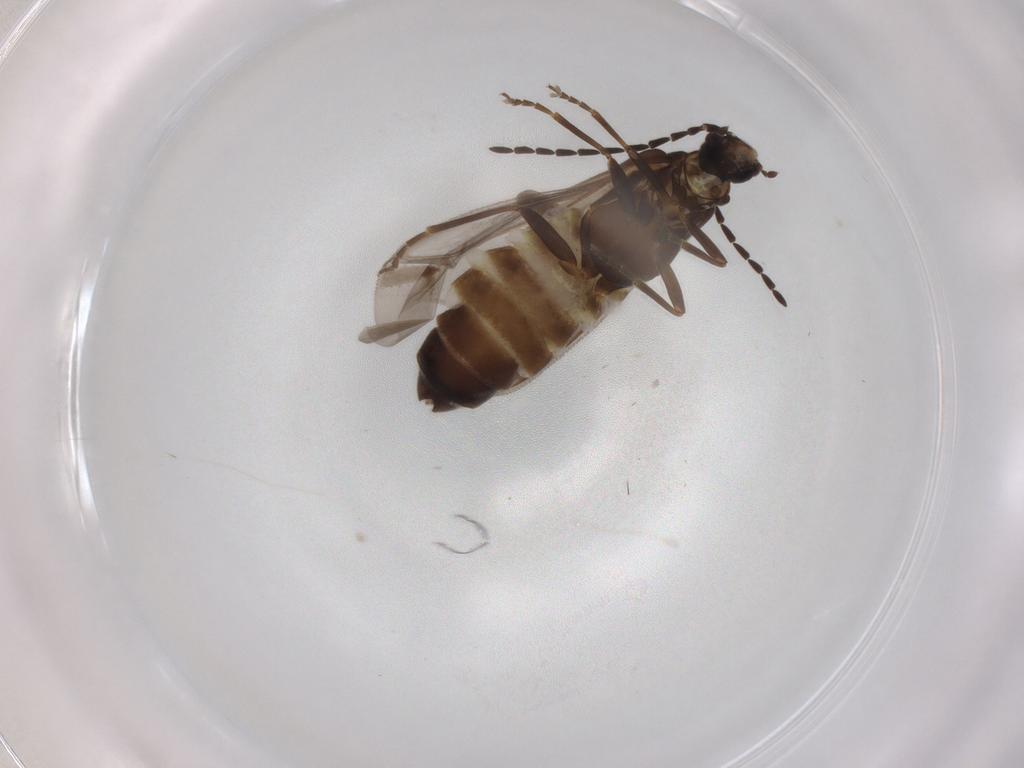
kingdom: Animalia
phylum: Arthropoda
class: Insecta
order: Coleoptera
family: Cantharidae
